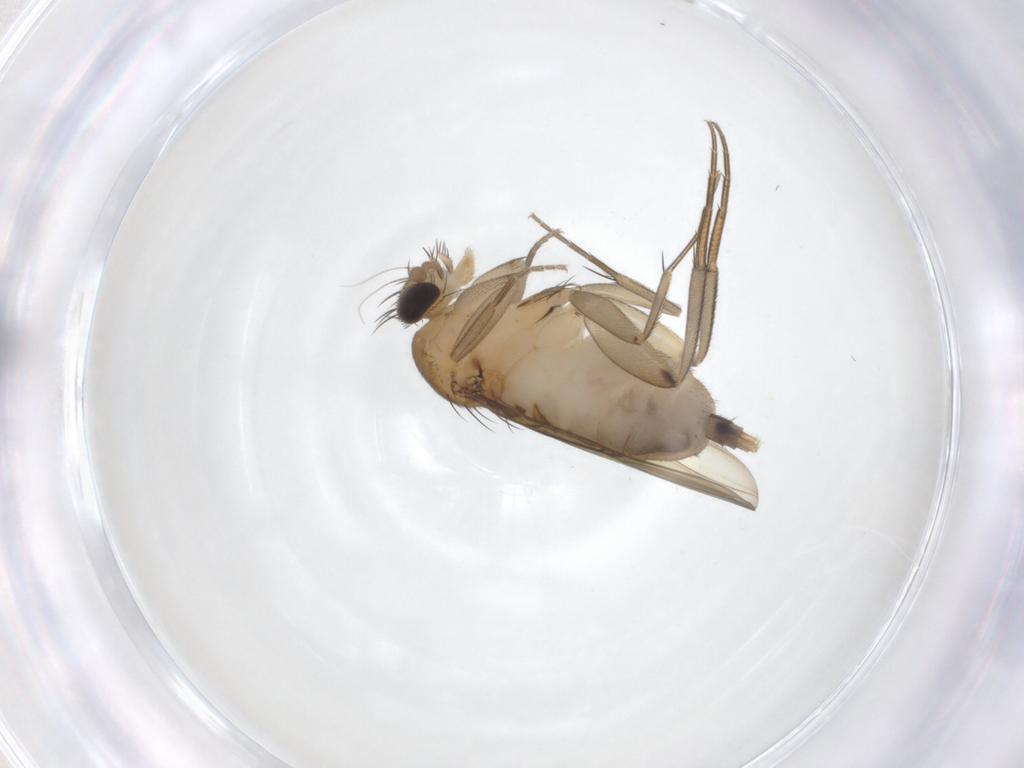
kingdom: Animalia
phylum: Arthropoda
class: Insecta
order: Diptera
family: Phoridae
